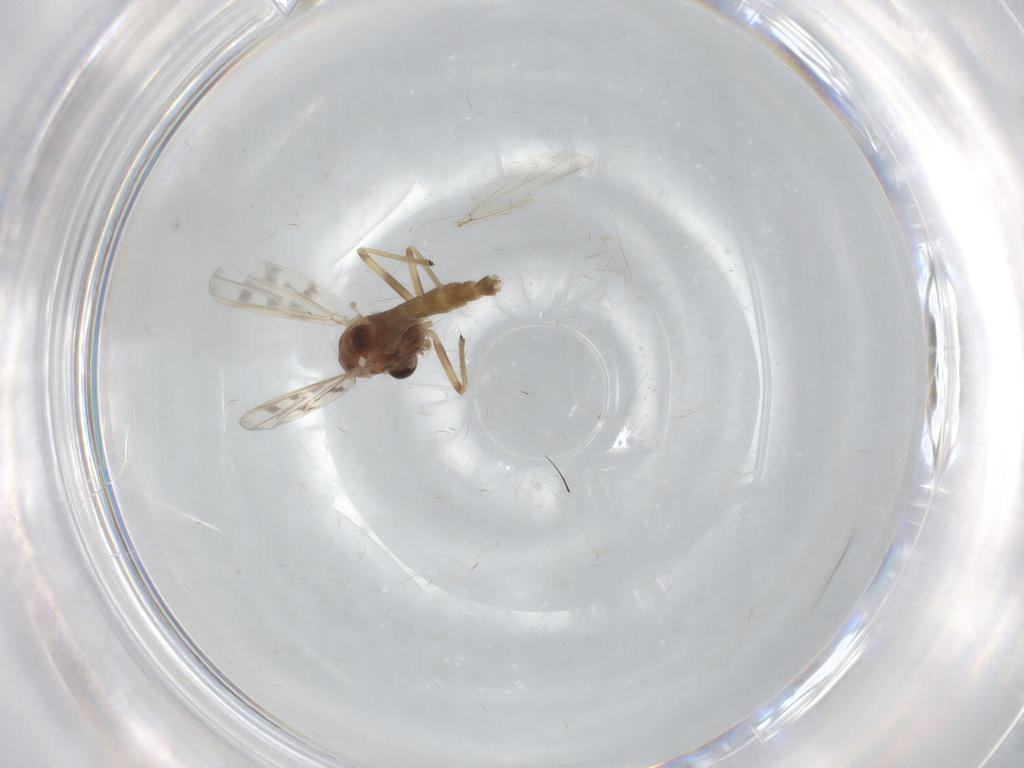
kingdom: Animalia
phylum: Arthropoda
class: Insecta
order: Diptera
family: Chironomidae
